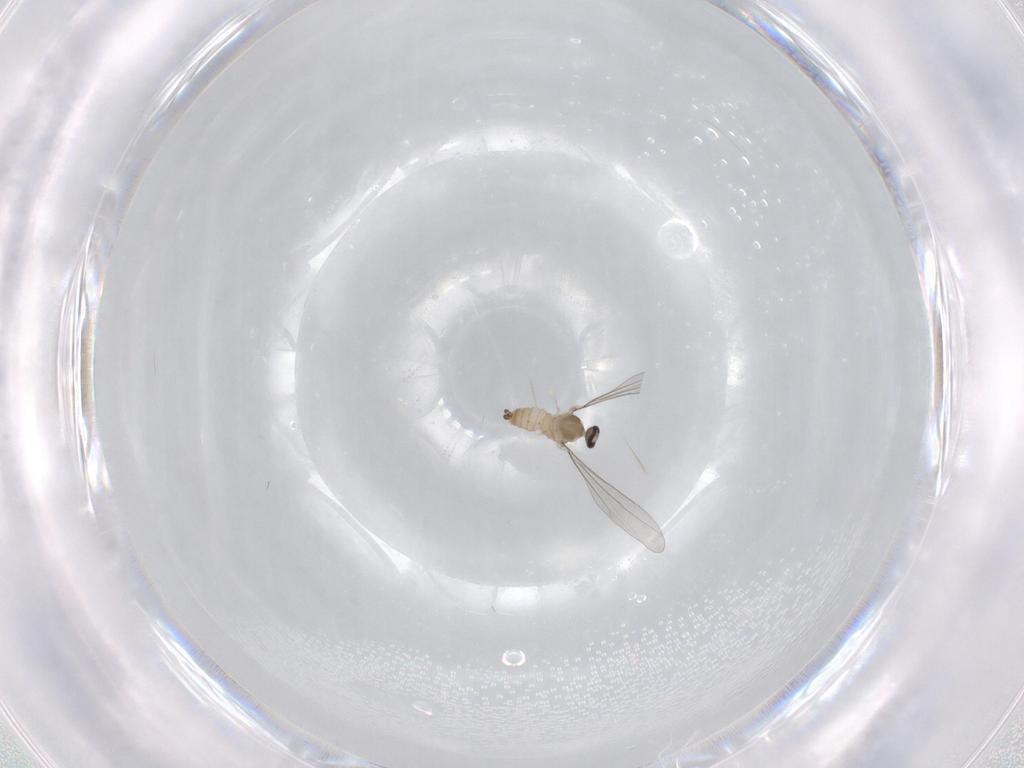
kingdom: Animalia
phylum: Arthropoda
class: Insecta
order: Diptera
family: Cecidomyiidae
